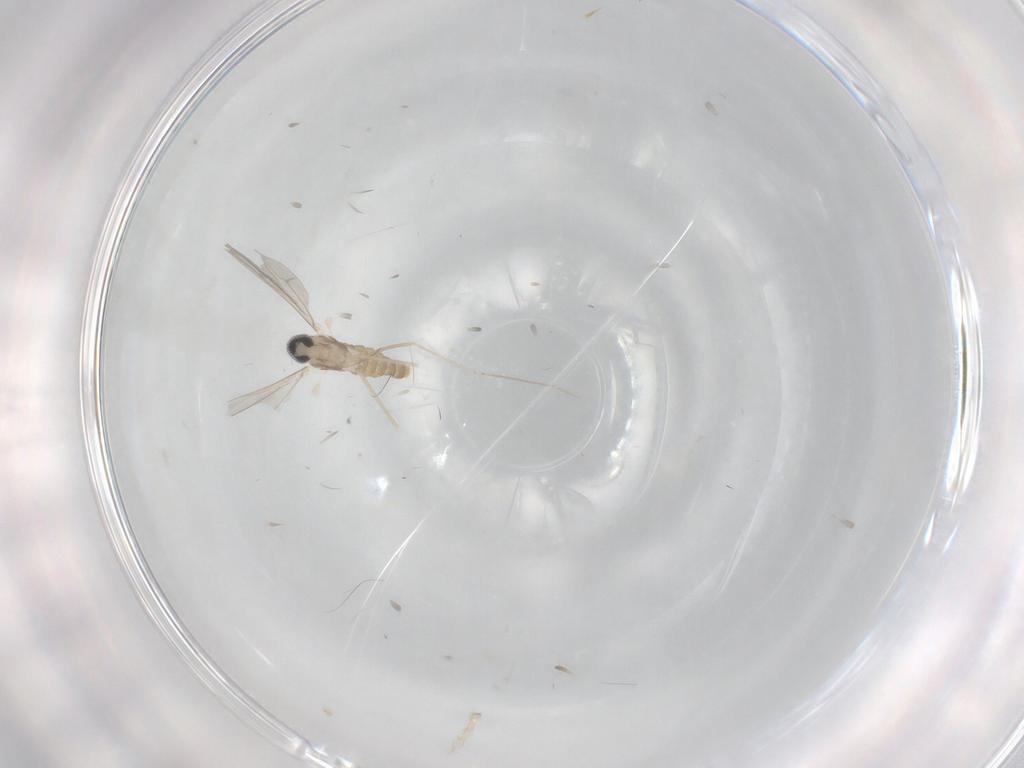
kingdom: Animalia
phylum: Arthropoda
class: Insecta
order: Diptera
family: Cecidomyiidae
